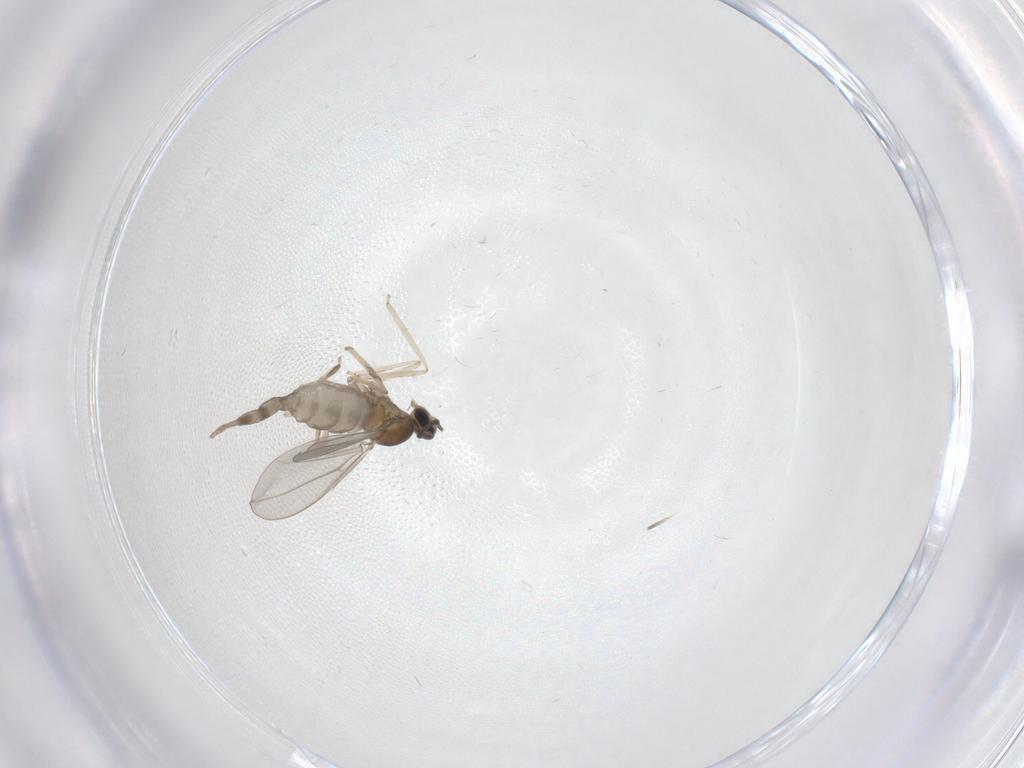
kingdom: Animalia
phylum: Arthropoda
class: Insecta
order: Diptera
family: Cecidomyiidae
